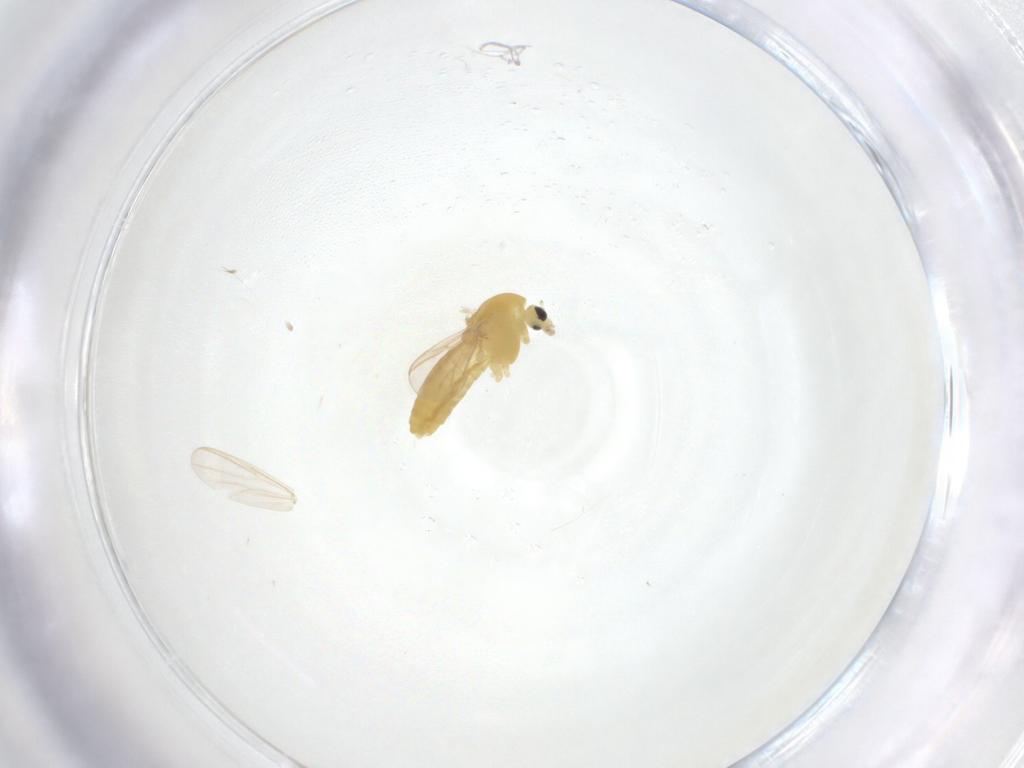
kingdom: Animalia
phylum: Arthropoda
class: Insecta
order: Diptera
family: Chironomidae
